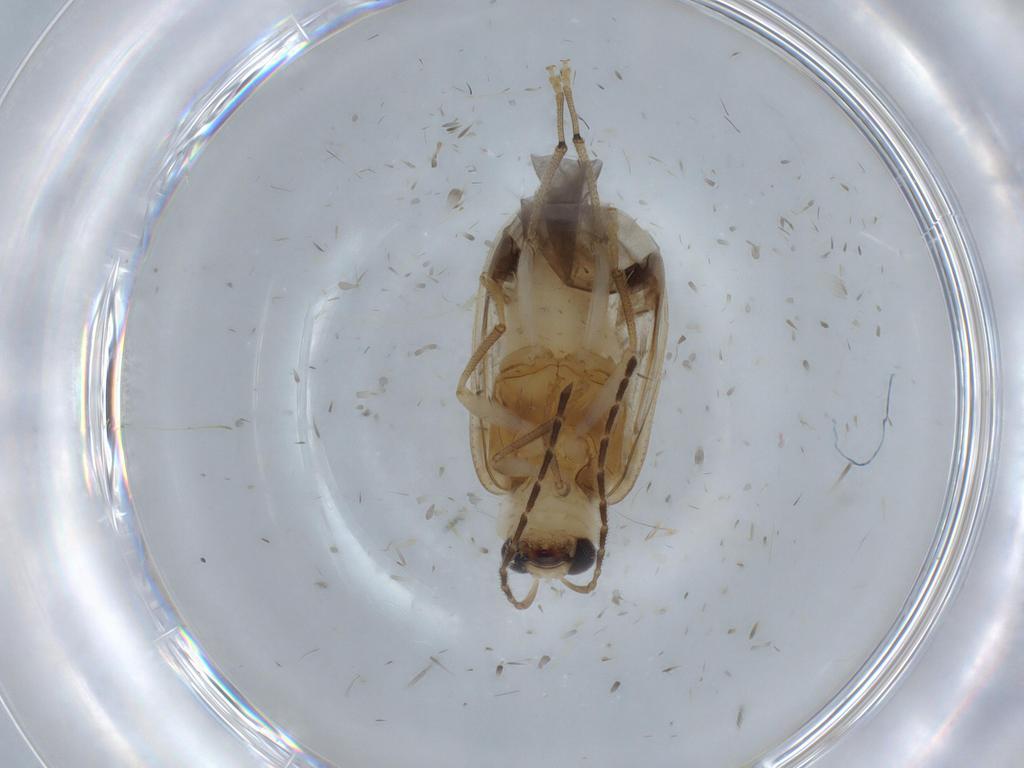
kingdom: Animalia
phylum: Arthropoda
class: Insecta
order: Coleoptera
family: Chrysomelidae
